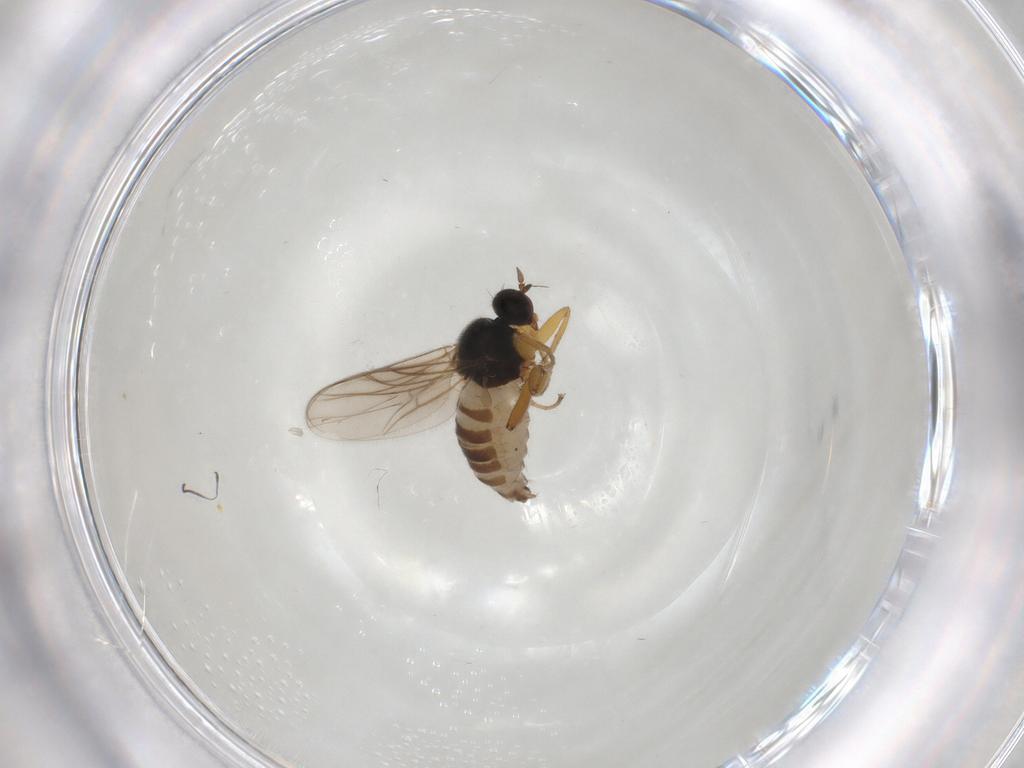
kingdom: Animalia
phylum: Arthropoda
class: Insecta
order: Diptera
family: Hybotidae
